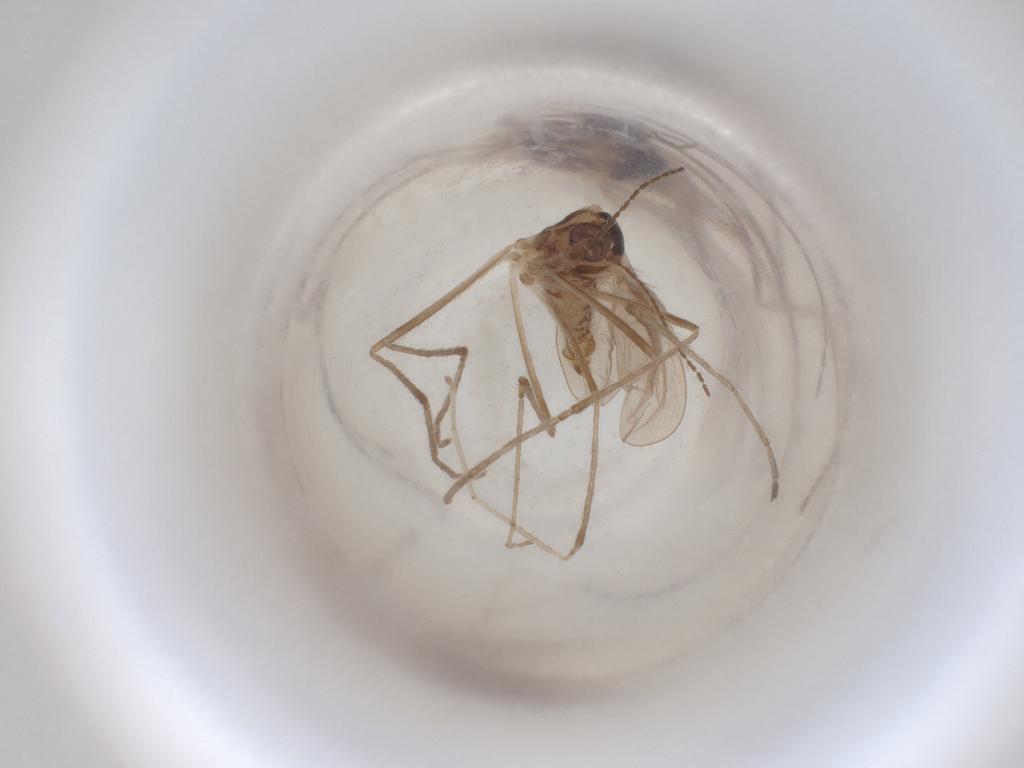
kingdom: Animalia
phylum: Arthropoda
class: Insecta
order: Diptera
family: Cecidomyiidae
